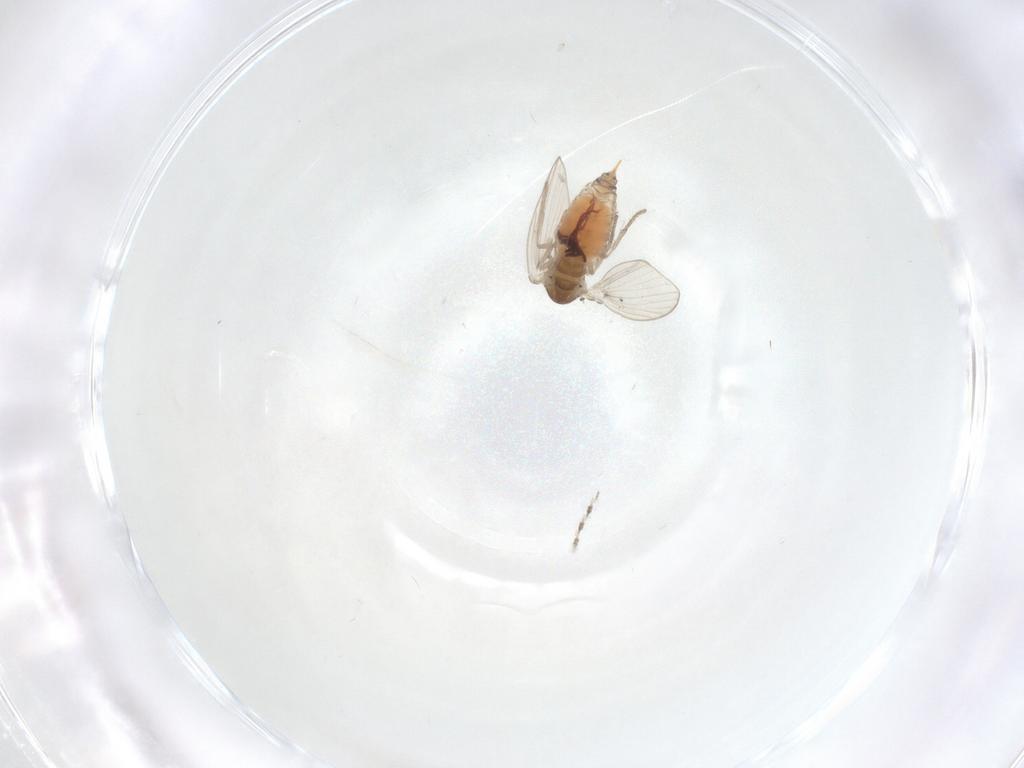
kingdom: Animalia
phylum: Arthropoda
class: Insecta
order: Diptera
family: Psychodidae
